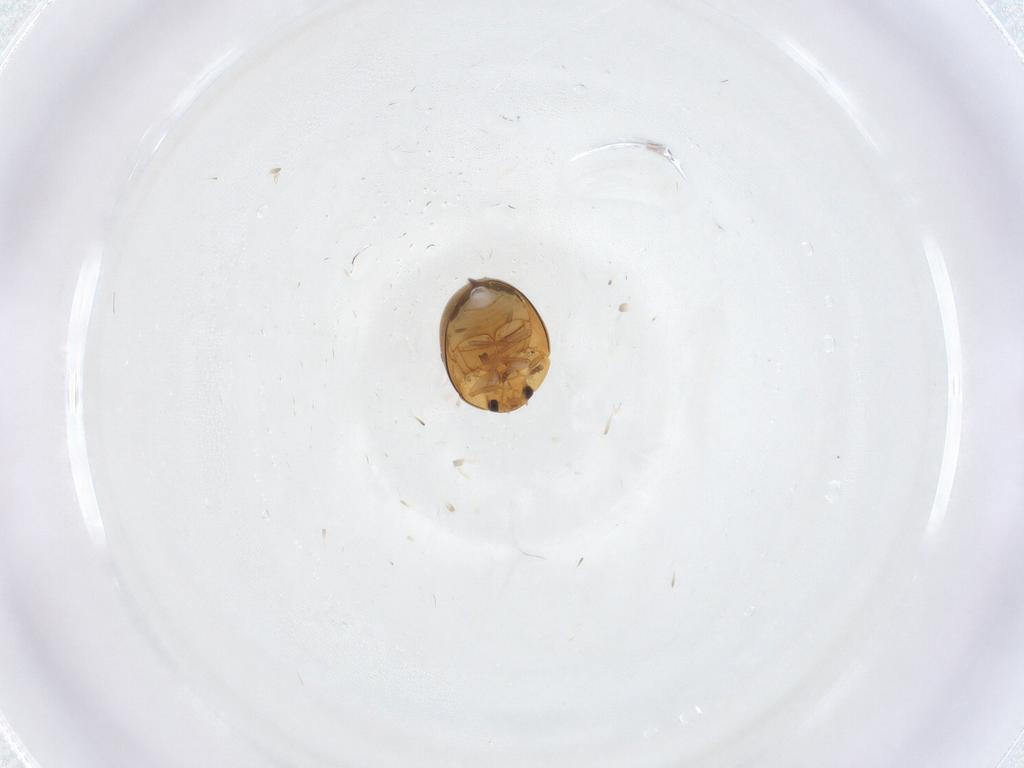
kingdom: Animalia
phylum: Arthropoda
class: Insecta
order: Coleoptera
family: Phalacridae
